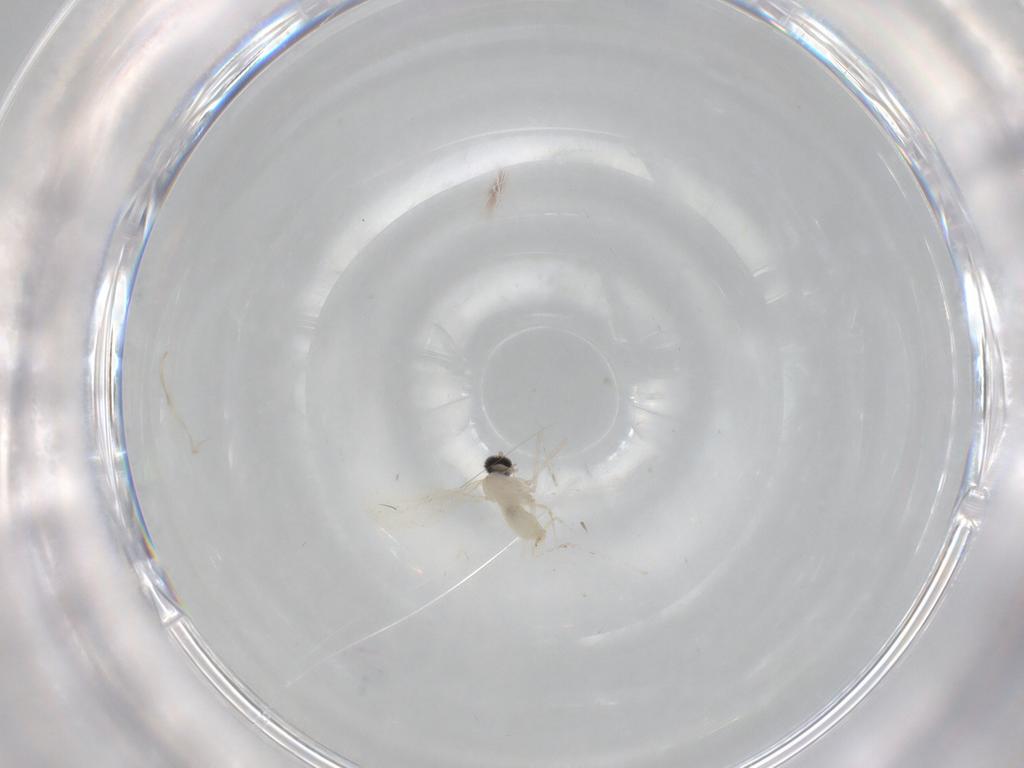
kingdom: Animalia
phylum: Arthropoda
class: Insecta
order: Diptera
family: Cecidomyiidae
